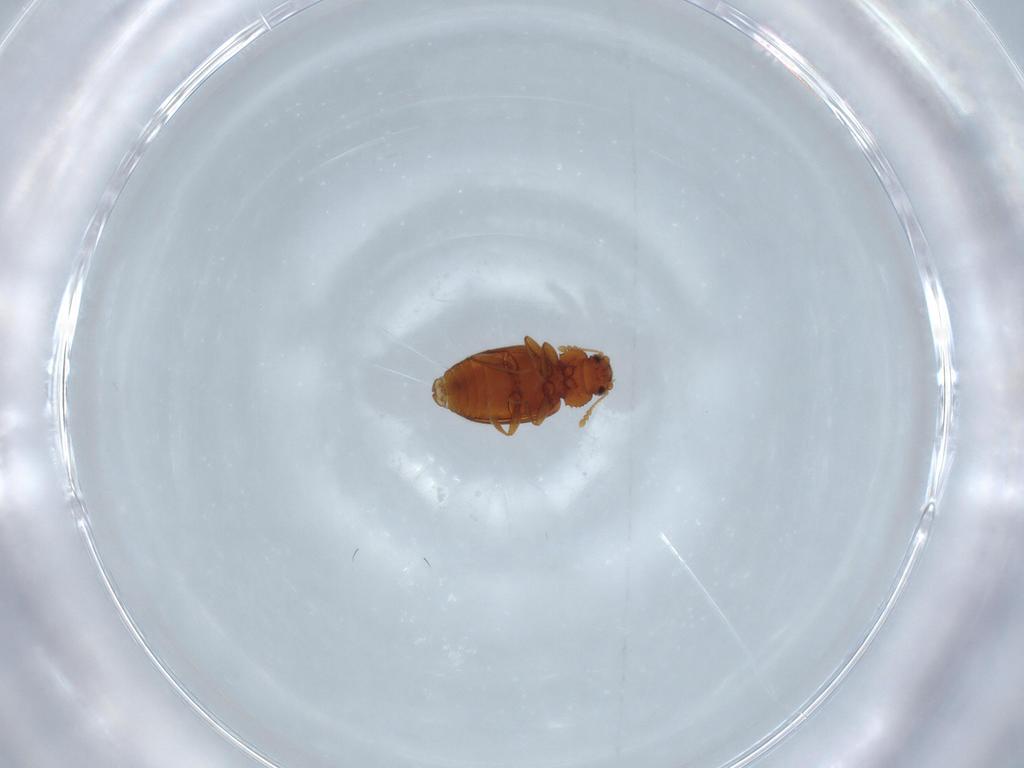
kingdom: Animalia
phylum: Arthropoda
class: Insecta
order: Coleoptera
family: Latridiidae
